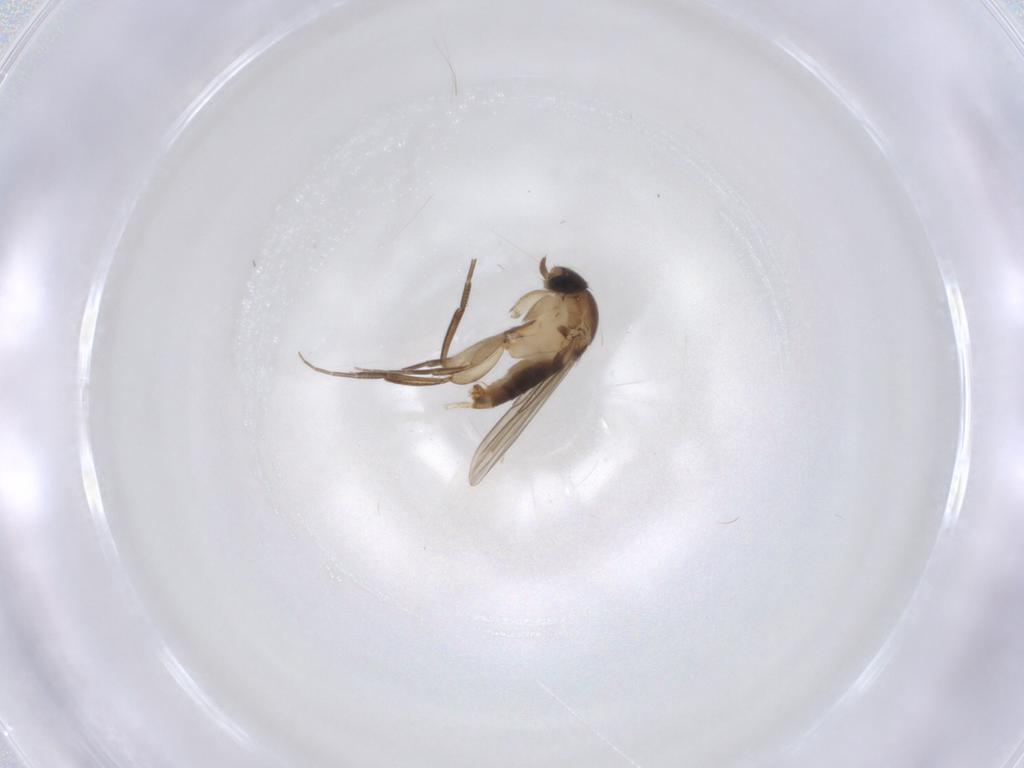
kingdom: Animalia
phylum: Arthropoda
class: Insecta
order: Diptera
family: Phoridae
